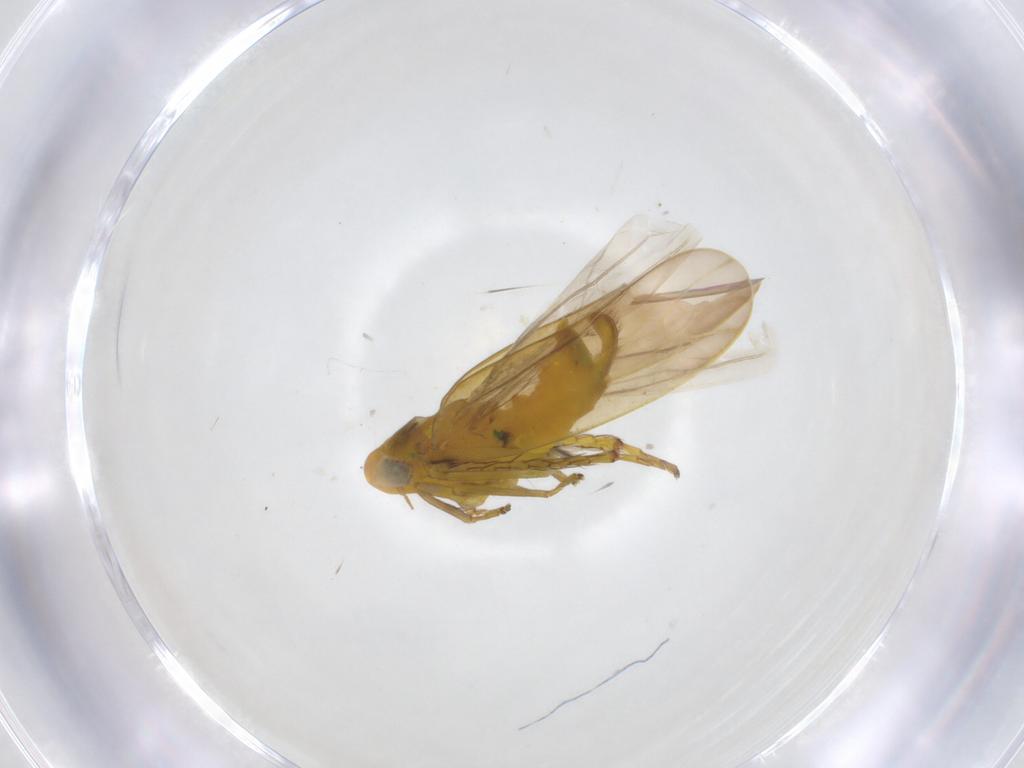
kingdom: Animalia
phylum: Arthropoda
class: Insecta
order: Hemiptera
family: Cicadellidae
